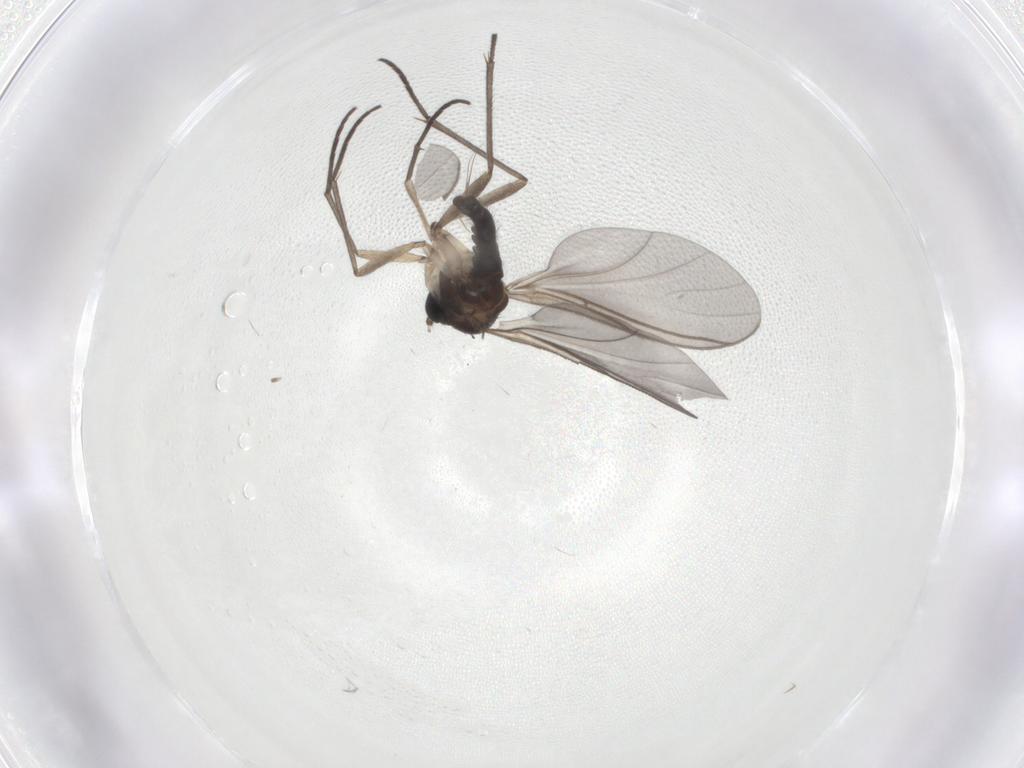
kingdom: Animalia
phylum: Arthropoda
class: Insecta
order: Diptera
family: Sciaridae
